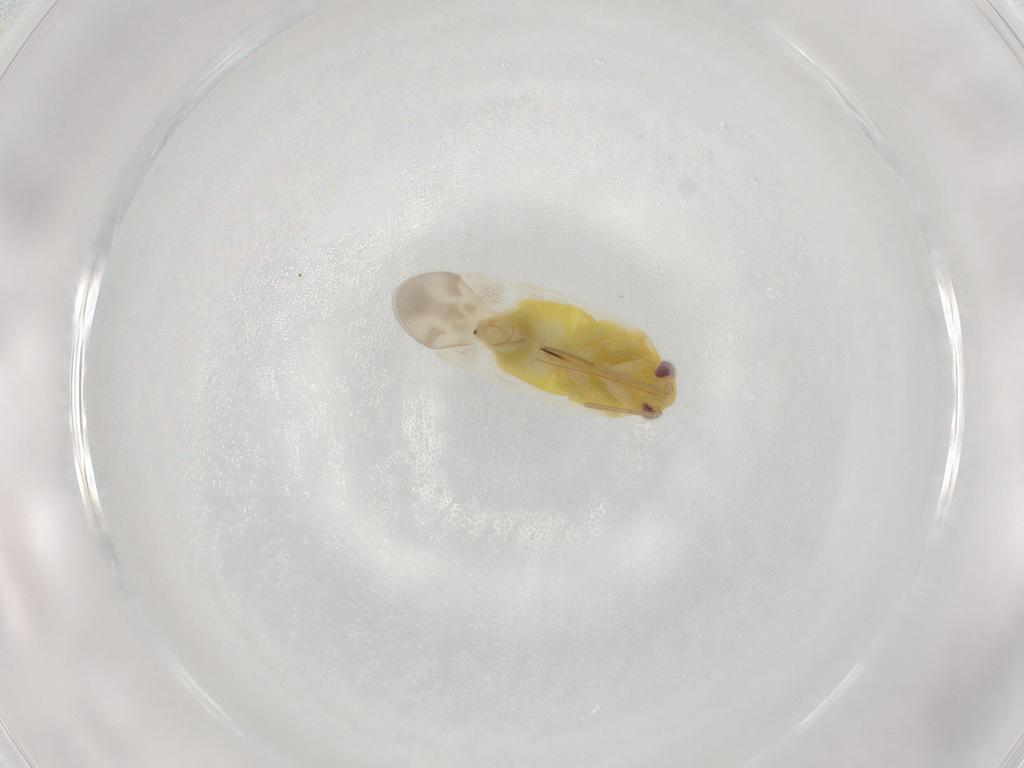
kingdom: Animalia
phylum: Arthropoda
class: Insecta
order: Hemiptera
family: Miridae
